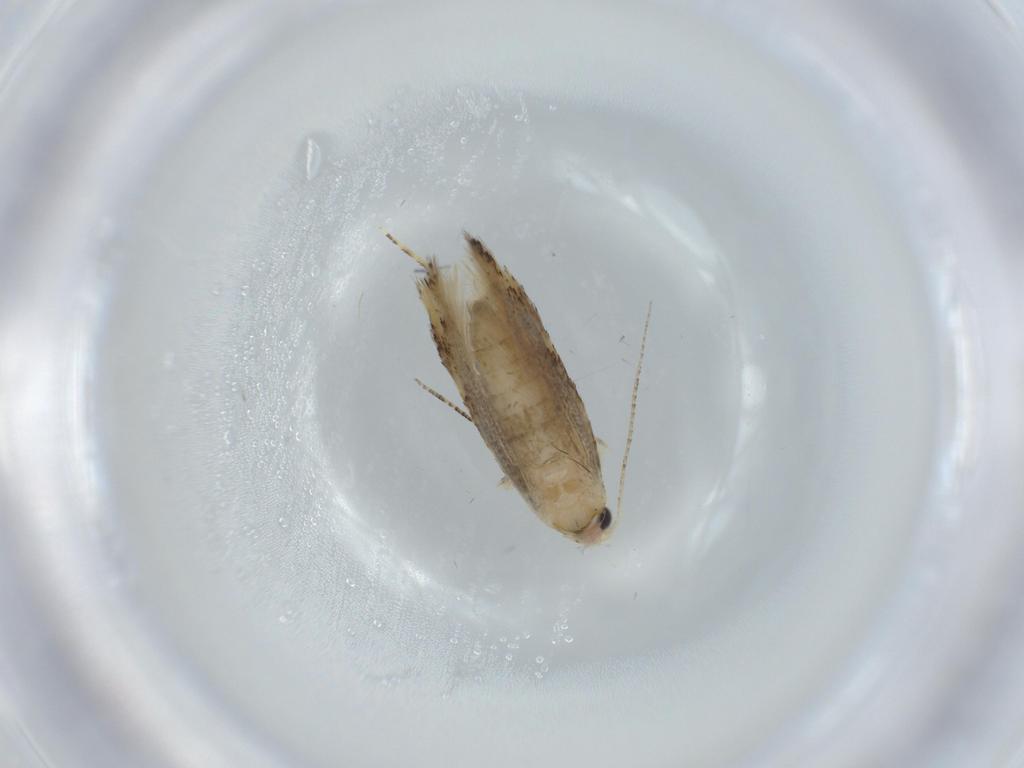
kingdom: Animalia
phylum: Arthropoda
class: Insecta
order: Lepidoptera
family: Bucculatricidae
